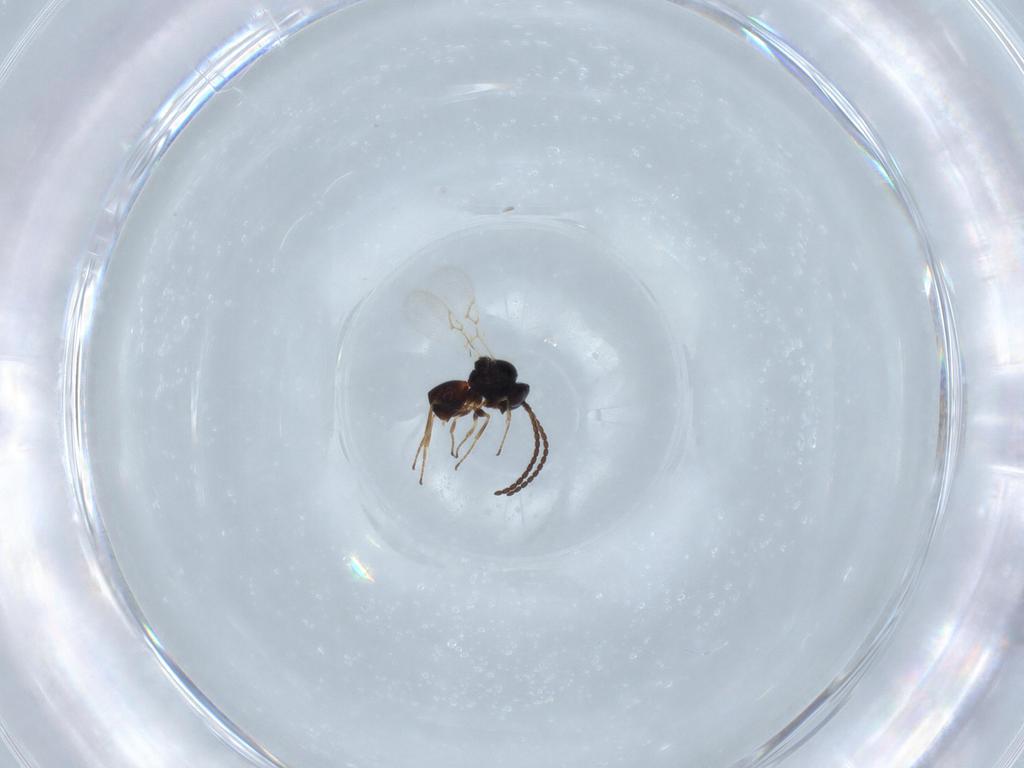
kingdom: Animalia
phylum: Arthropoda
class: Insecta
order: Hymenoptera
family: Figitidae
